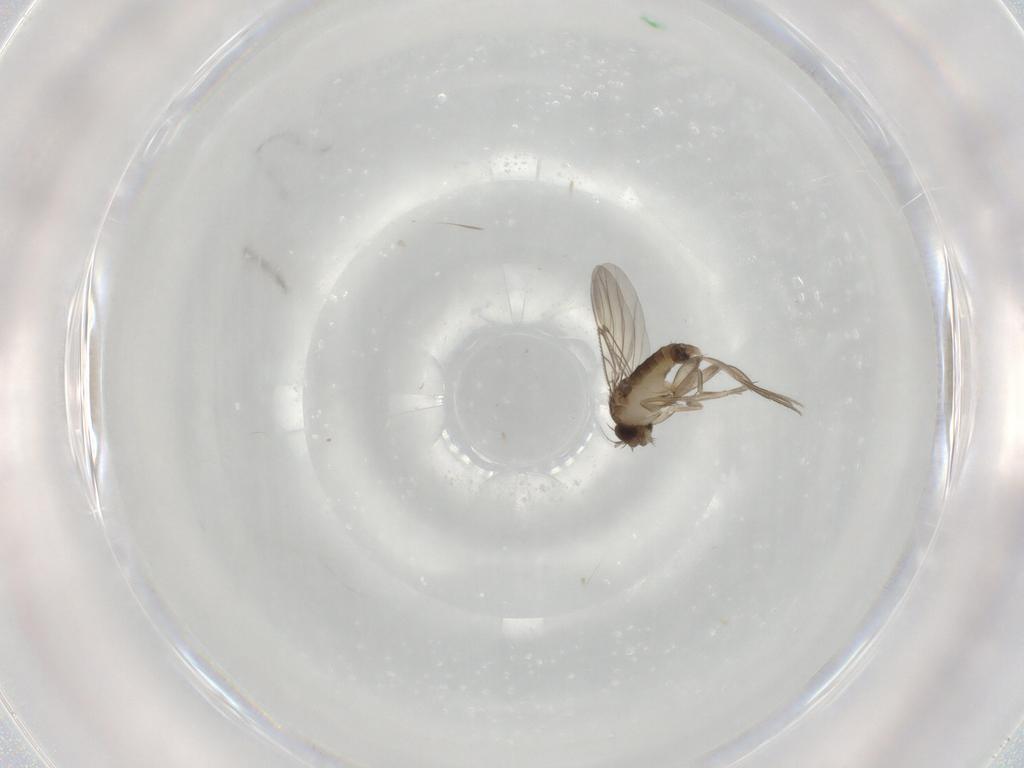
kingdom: Animalia
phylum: Arthropoda
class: Insecta
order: Diptera
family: Phoridae
